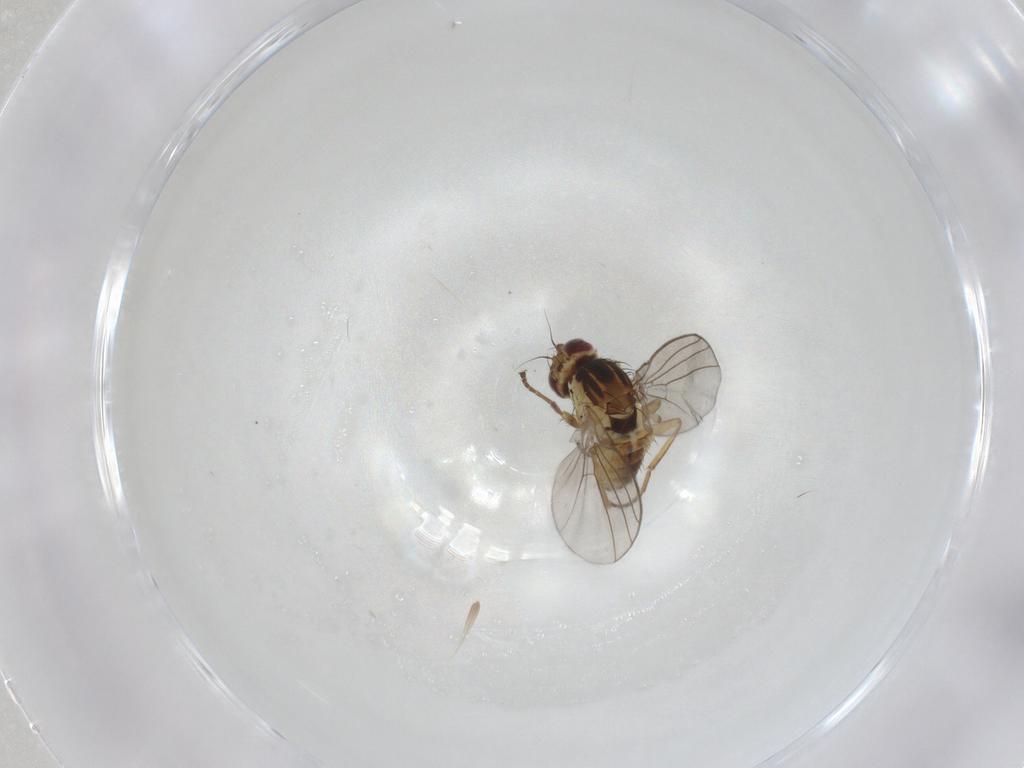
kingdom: Animalia
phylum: Arthropoda
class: Insecta
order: Diptera
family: Agromyzidae
